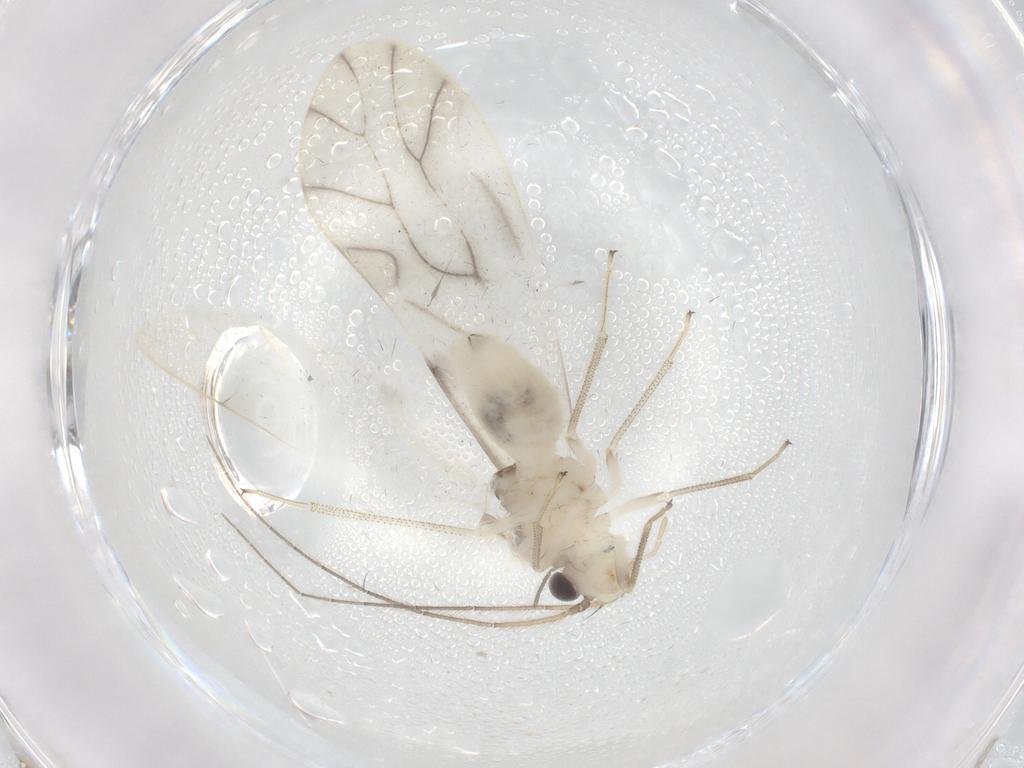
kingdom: Animalia
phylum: Arthropoda
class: Insecta
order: Psocodea
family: Caeciliusidae
